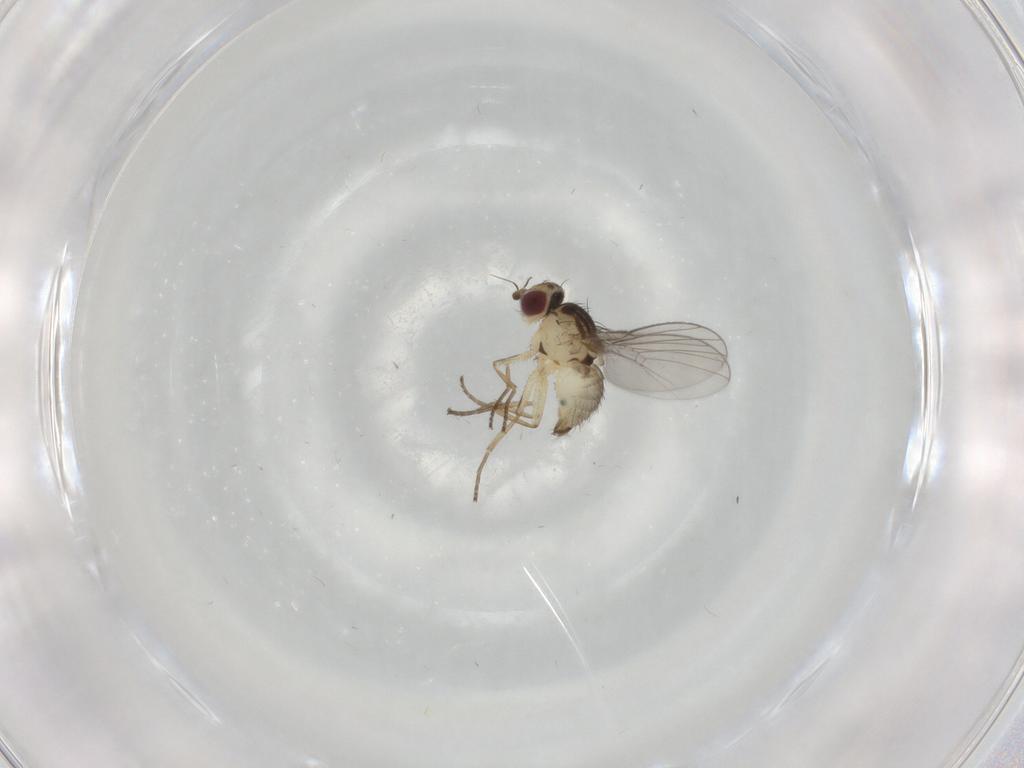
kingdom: Animalia
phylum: Arthropoda
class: Insecta
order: Diptera
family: Agromyzidae
